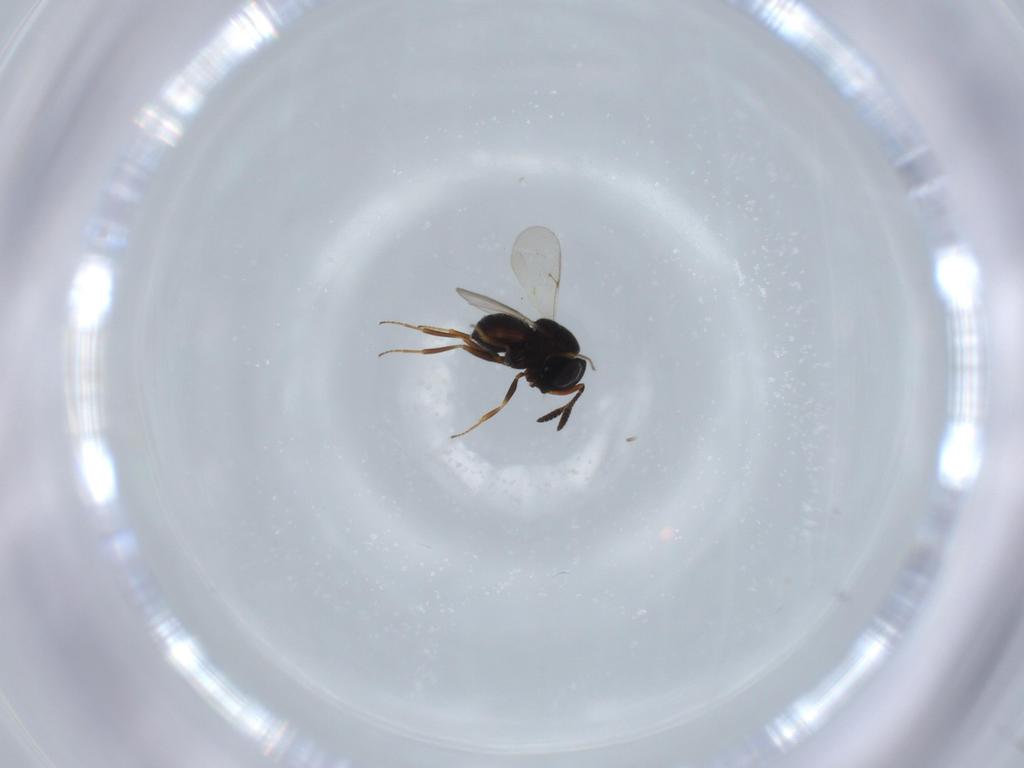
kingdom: Animalia
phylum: Arthropoda
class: Insecta
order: Hymenoptera
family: Scelionidae
